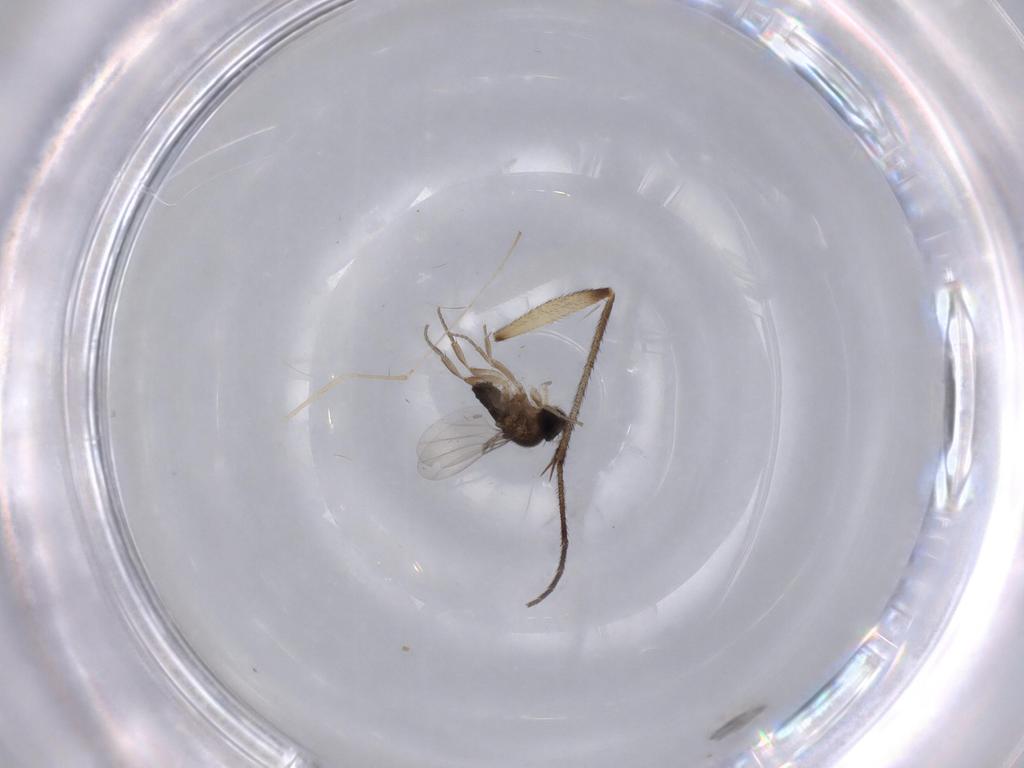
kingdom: Animalia
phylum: Arthropoda
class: Insecta
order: Diptera
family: Phoridae
